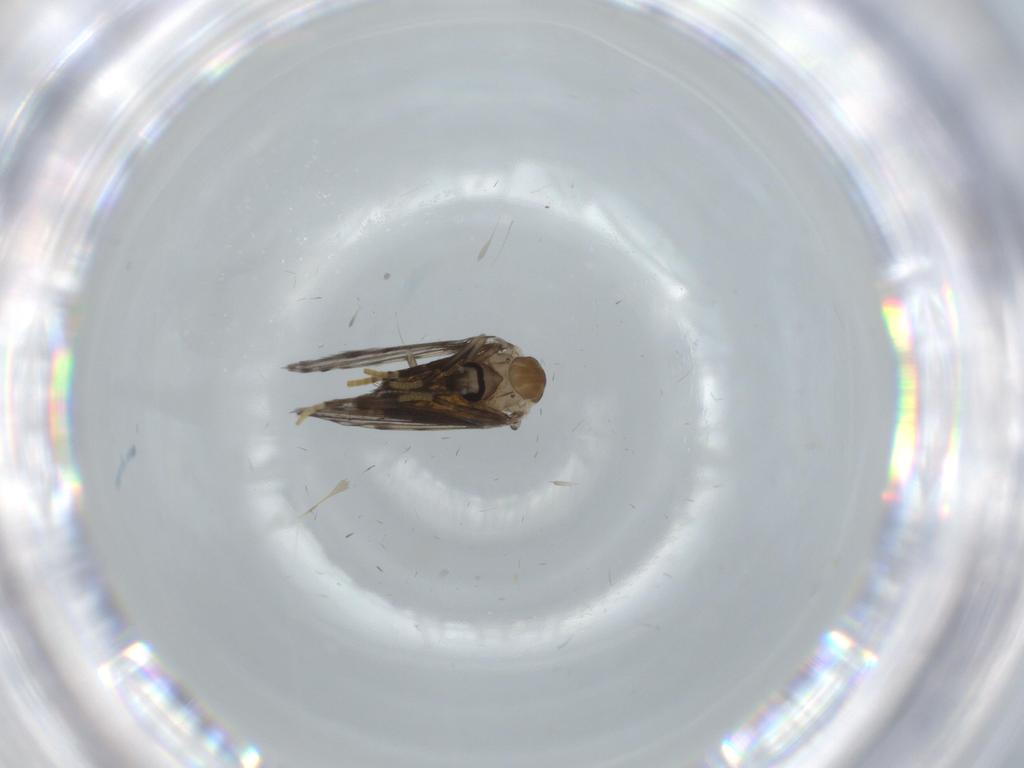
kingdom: Animalia
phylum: Arthropoda
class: Insecta
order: Diptera
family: Psychodidae
